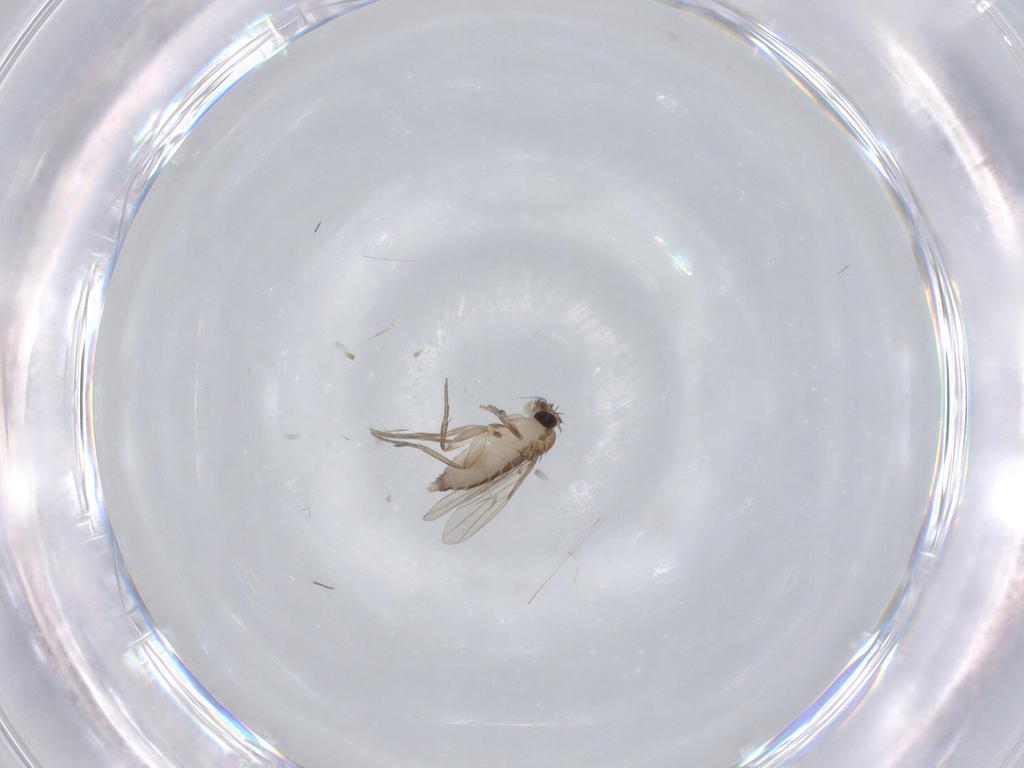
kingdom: Animalia
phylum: Arthropoda
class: Insecta
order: Diptera
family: Phoridae
